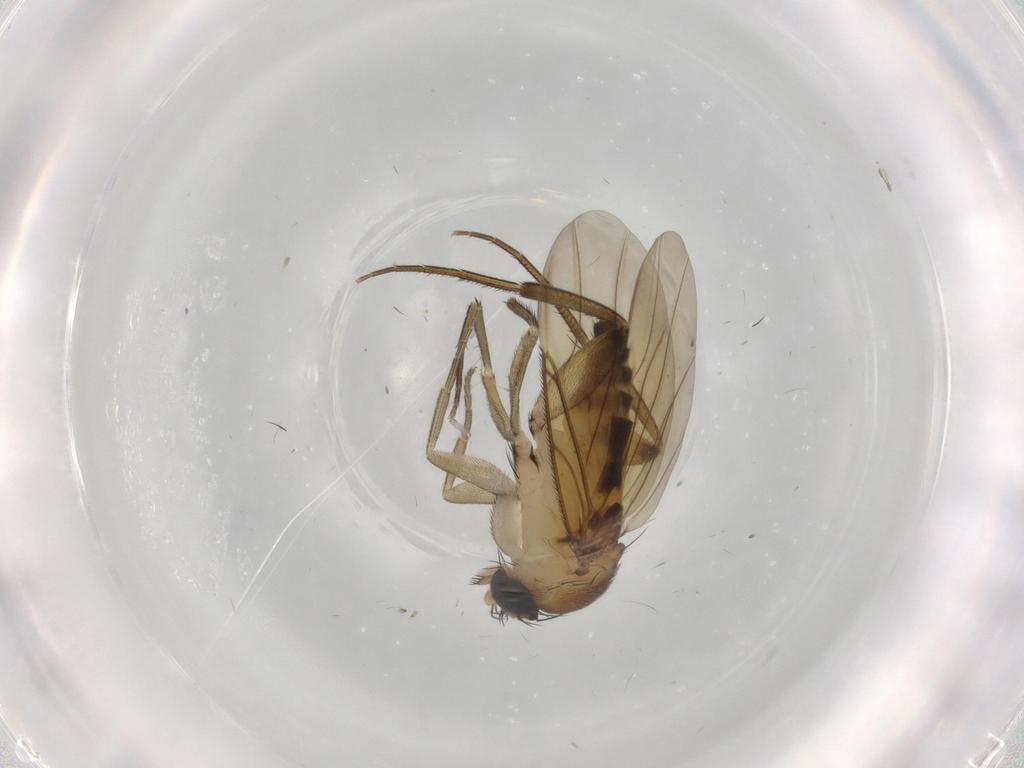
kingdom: Animalia
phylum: Arthropoda
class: Insecta
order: Diptera
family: Phoridae
